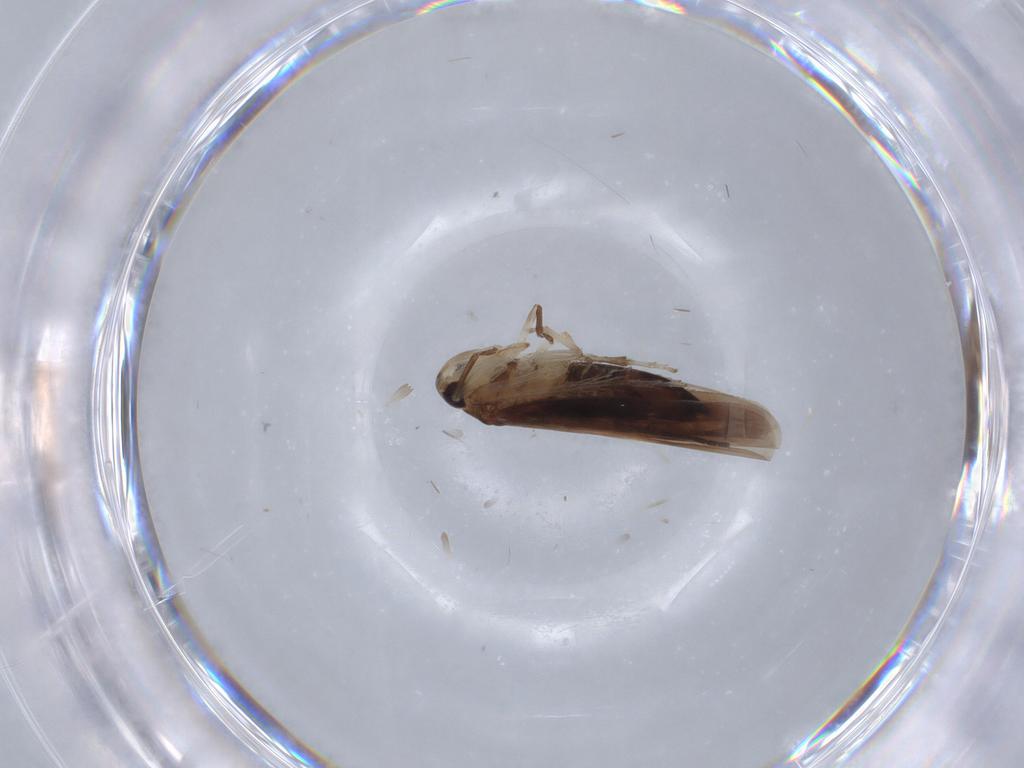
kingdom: Animalia
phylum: Arthropoda
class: Insecta
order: Hemiptera
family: Cicadellidae
